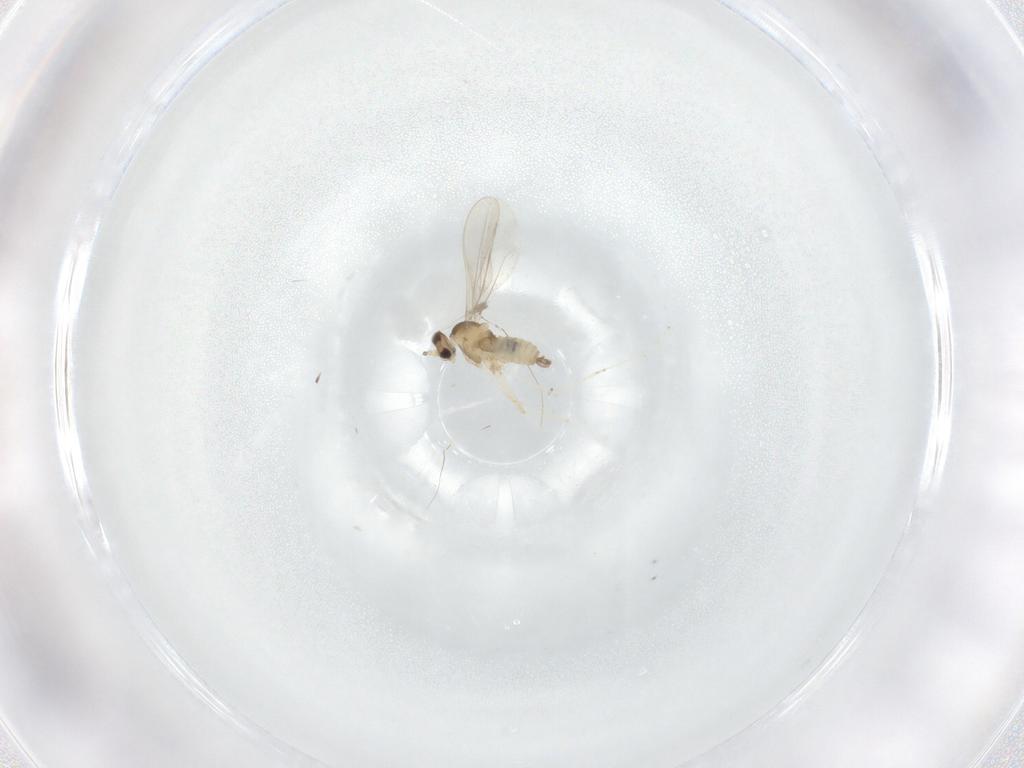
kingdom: Animalia
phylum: Arthropoda
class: Insecta
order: Diptera
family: Cecidomyiidae
